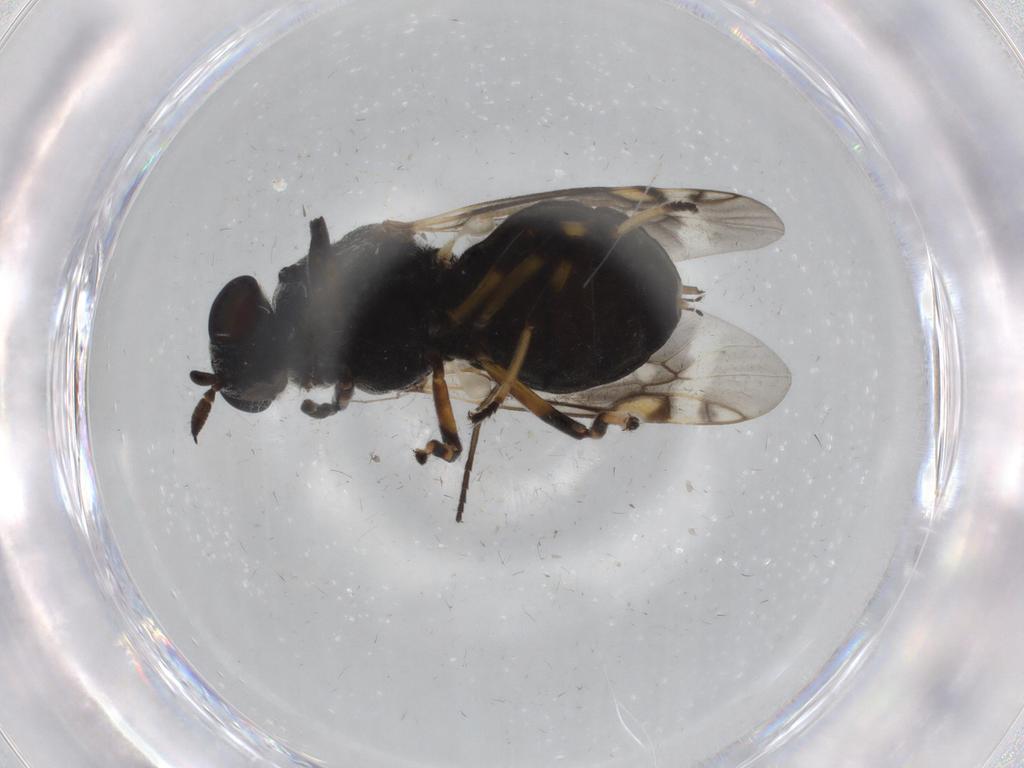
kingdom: Animalia
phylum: Arthropoda
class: Insecta
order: Diptera
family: Stratiomyidae
